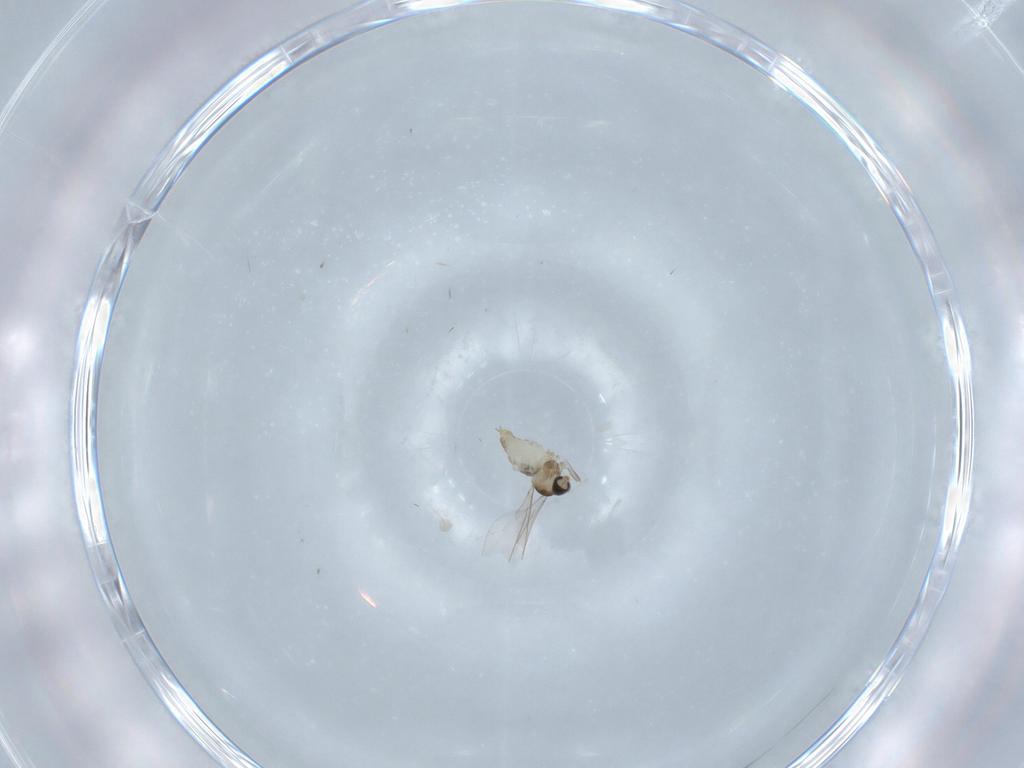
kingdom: Animalia
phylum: Arthropoda
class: Insecta
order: Diptera
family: Cecidomyiidae
